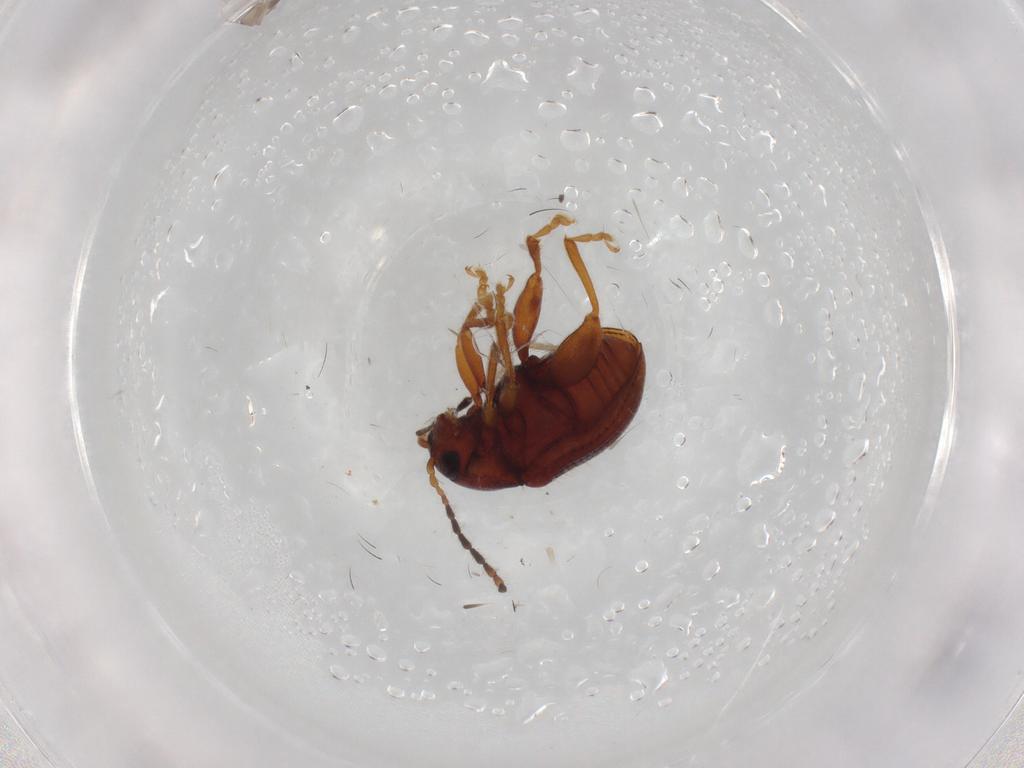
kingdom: Animalia
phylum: Arthropoda
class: Insecta
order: Coleoptera
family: Chrysomelidae
